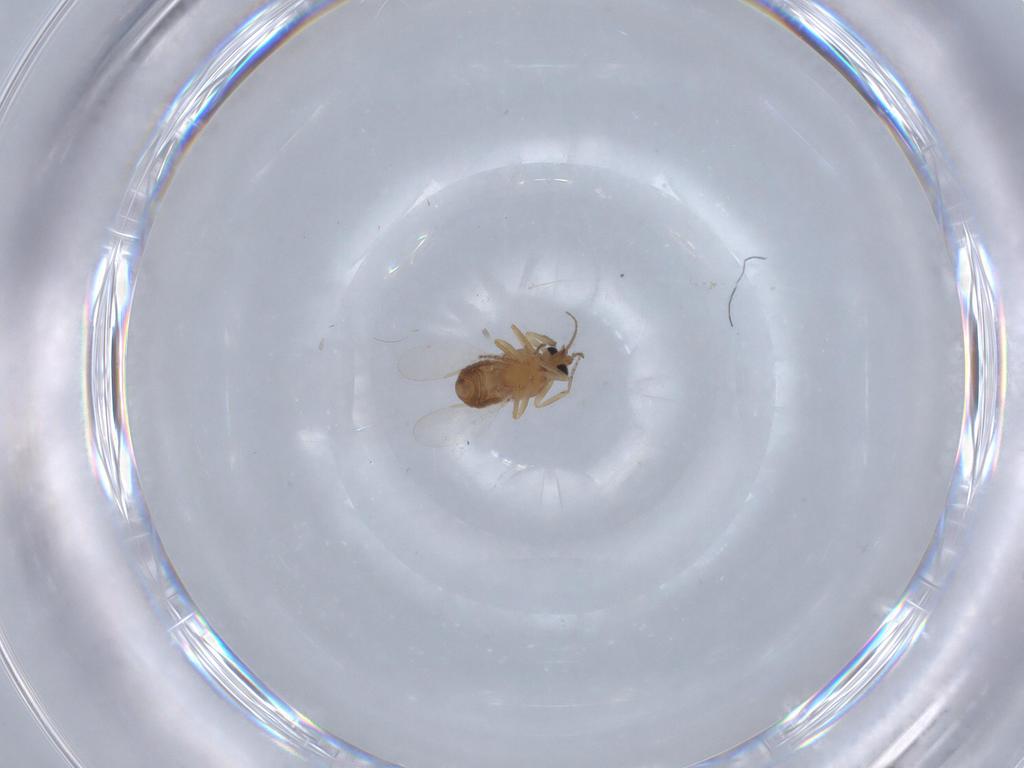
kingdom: Animalia
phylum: Arthropoda
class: Insecta
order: Diptera
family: Ceratopogonidae
